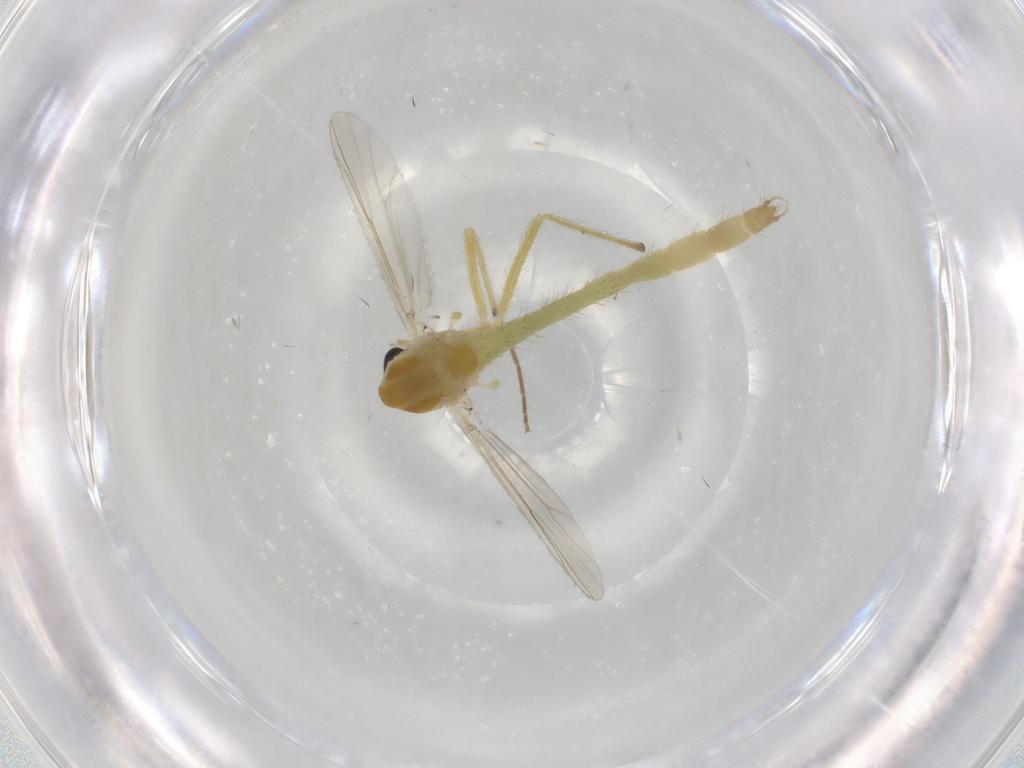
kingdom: Animalia
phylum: Arthropoda
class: Insecta
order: Diptera
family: Chironomidae
